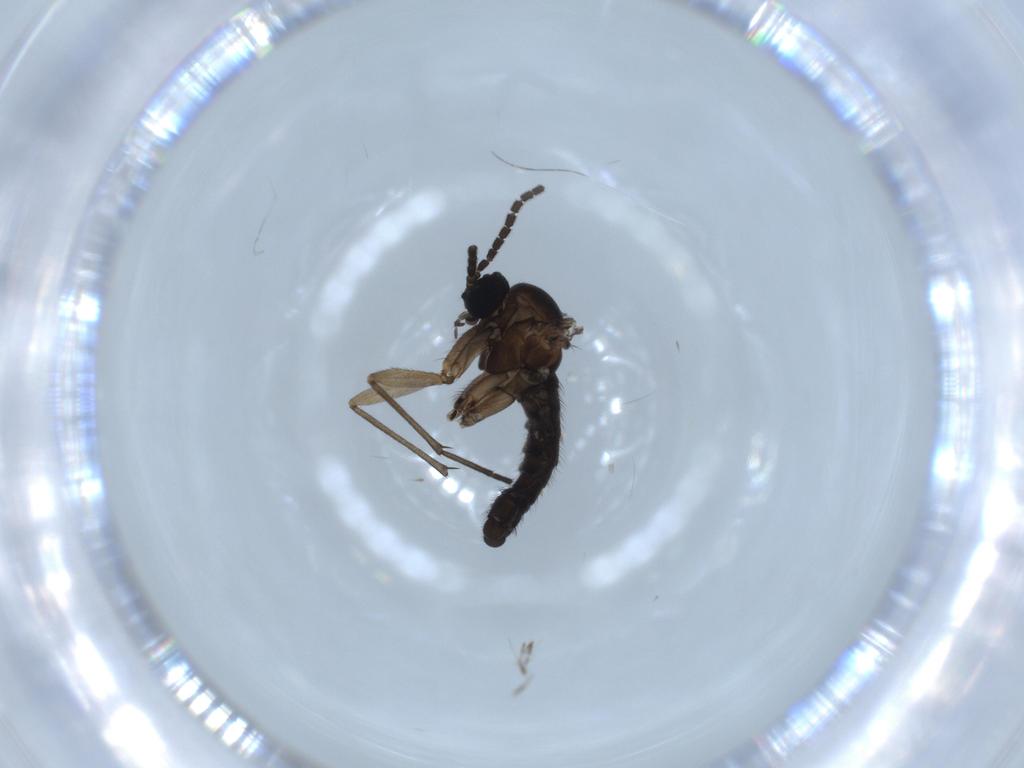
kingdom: Animalia
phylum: Arthropoda
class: Insecta
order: Diptera
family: Sciaridae
